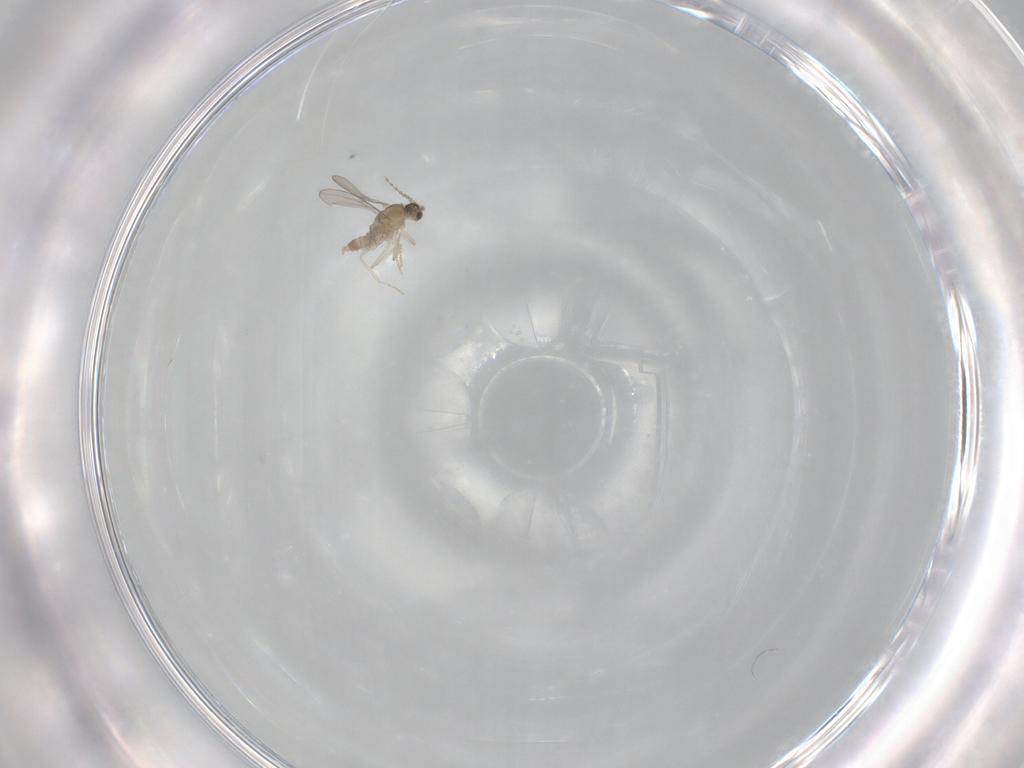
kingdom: Animalia
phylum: Arthropoda
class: Insecta
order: Diptera
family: Cecidomyiidae
